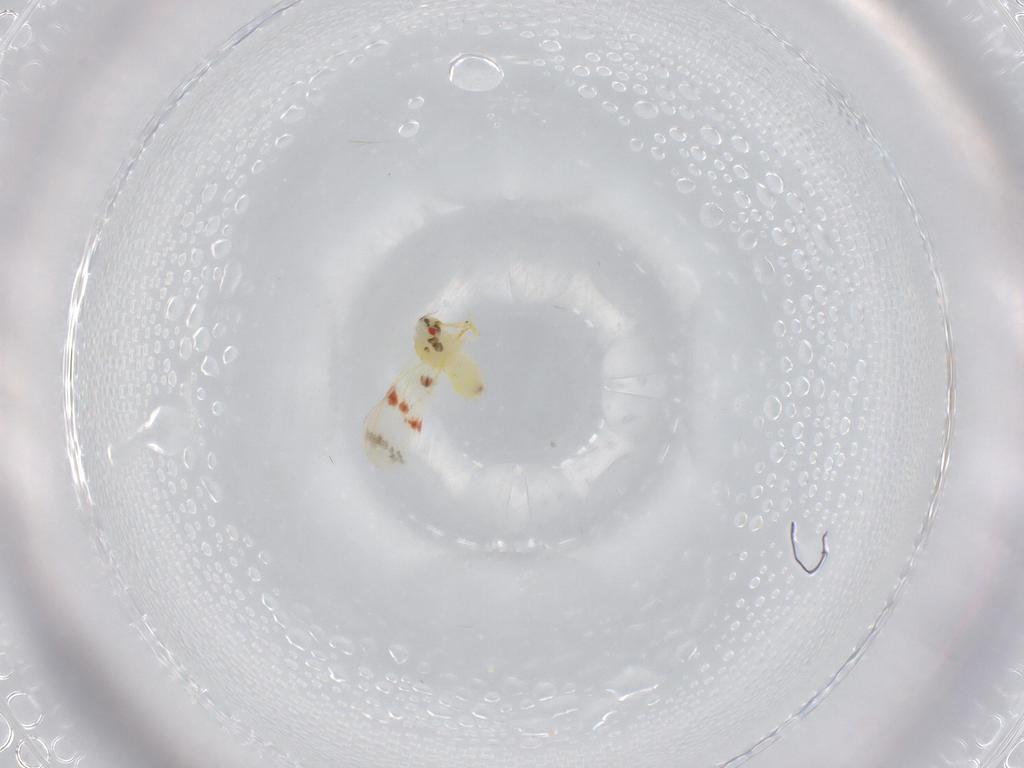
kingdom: Animalia
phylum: Arthropoda
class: Insecta
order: Hemiptera
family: Aleyrodidae
